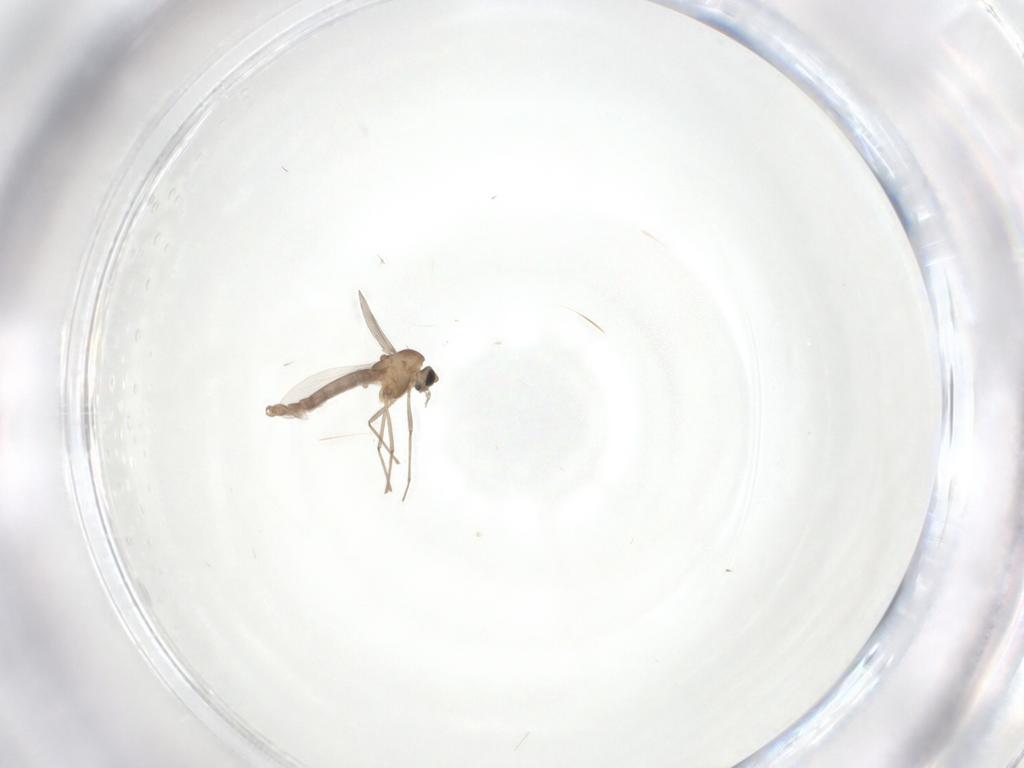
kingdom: Animalia
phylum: Arthropoda
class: Insecta
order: Diptera
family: Chironomidae
